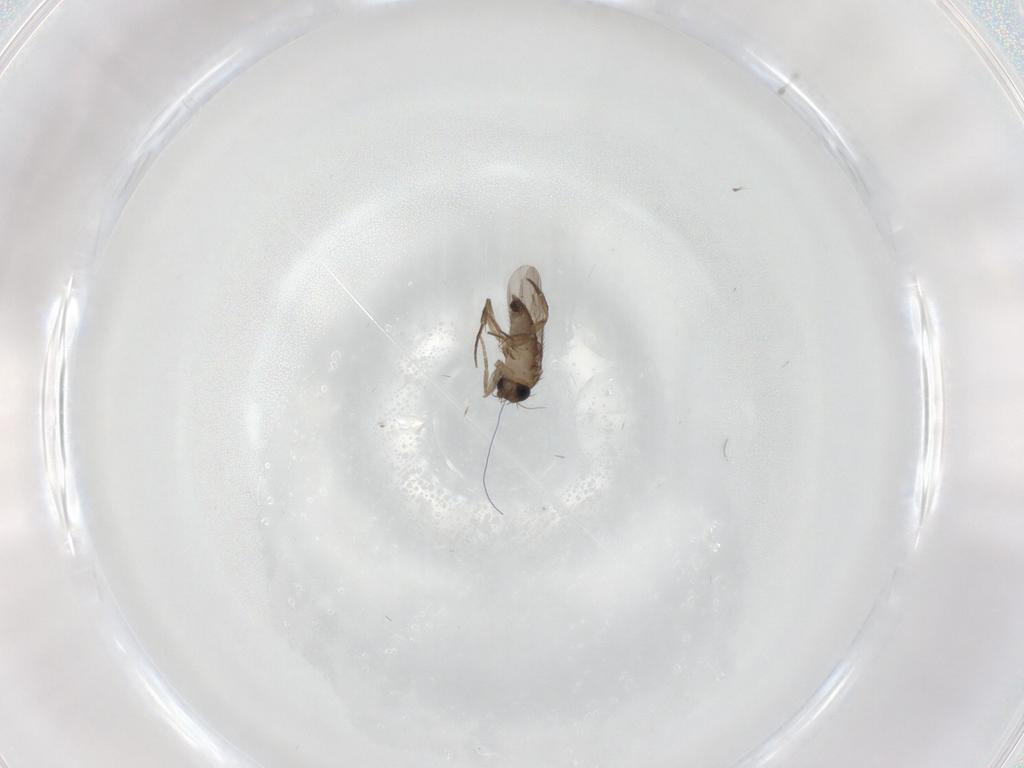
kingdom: Animalia
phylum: Arthropoda
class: Insecta
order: Diptera
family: Phoridae
